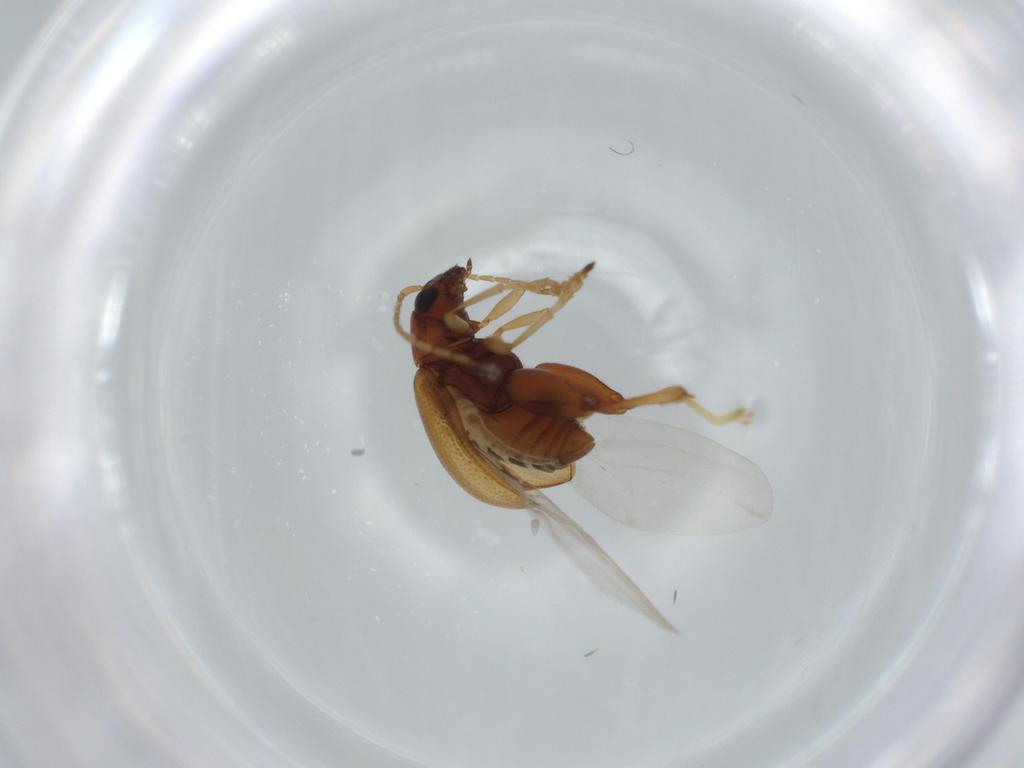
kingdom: Animalia
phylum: Arthropoda
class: Insecta
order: Coleoptera
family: Chrysomelidae
